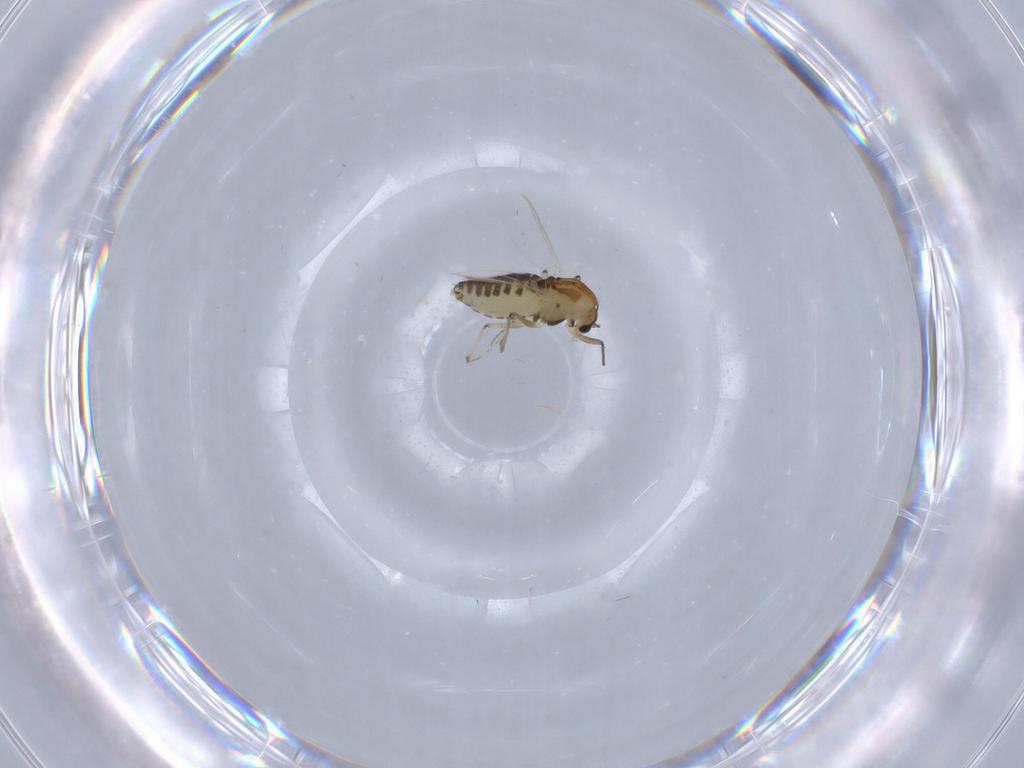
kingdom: Animalia
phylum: Arthropoda
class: Insecta
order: Diptera
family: Chironomidae
